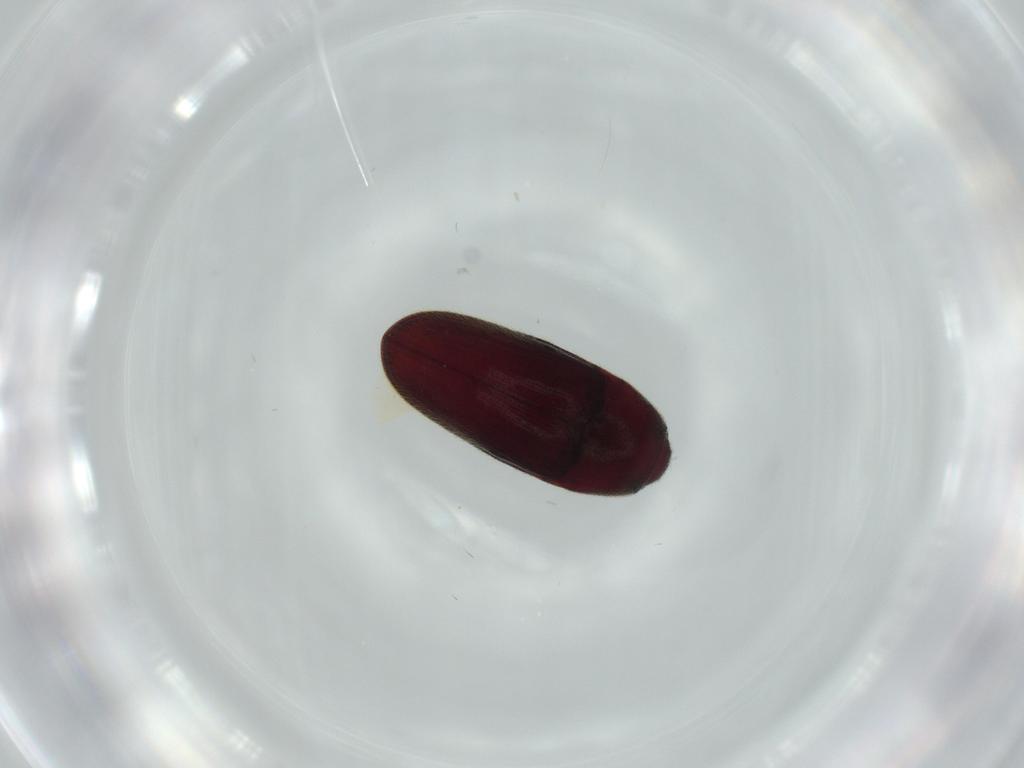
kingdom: Animalia
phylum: Arthropoda
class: Insecta
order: Coleoptera
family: Throscidae
